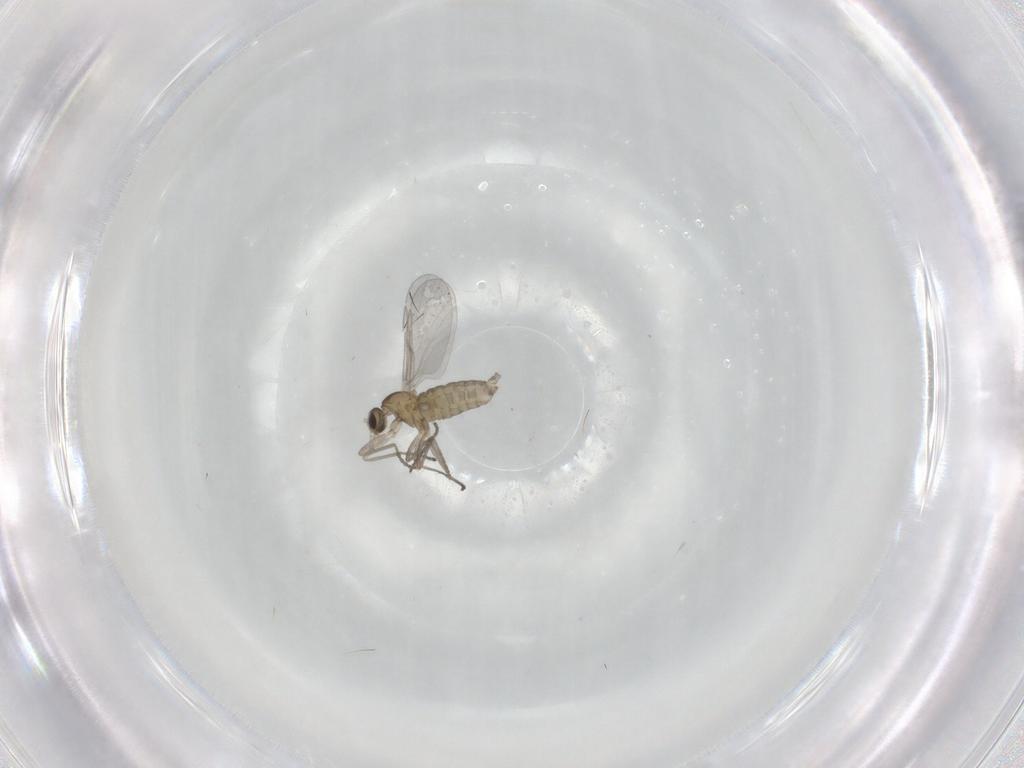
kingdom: Animalia
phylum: Arthropoda
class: Insecta
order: Diptera
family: Cecidomyiidae
